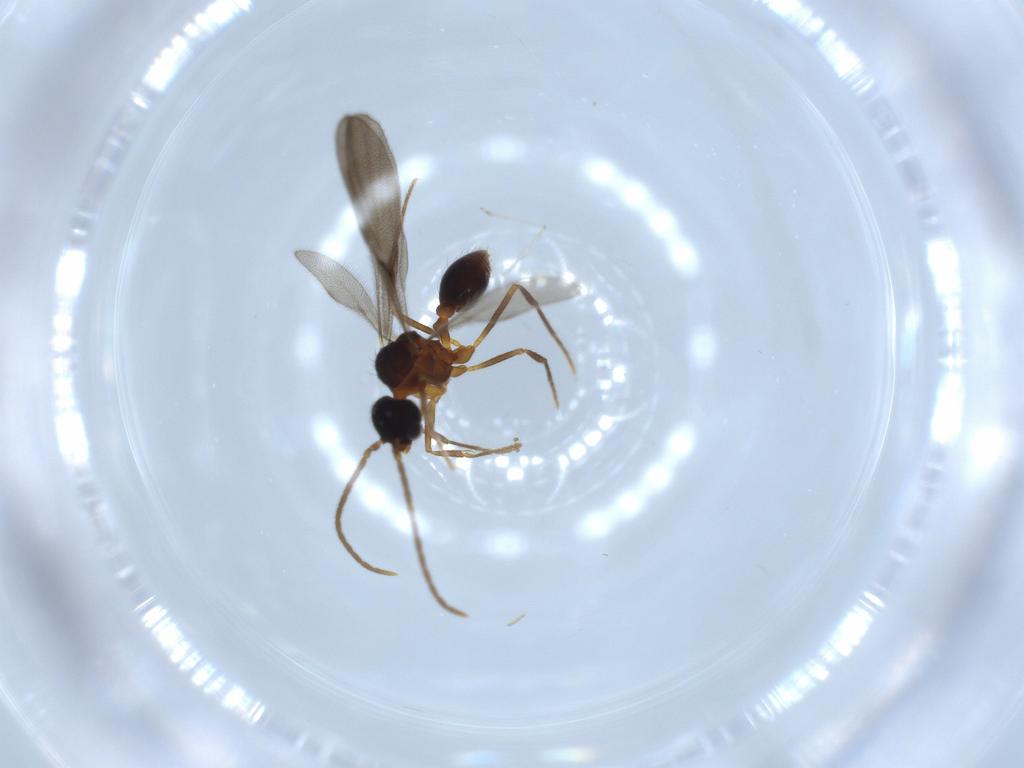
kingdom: Animalia
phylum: Arthropoda
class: Insecta
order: Hymenoptera
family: Formicidae
